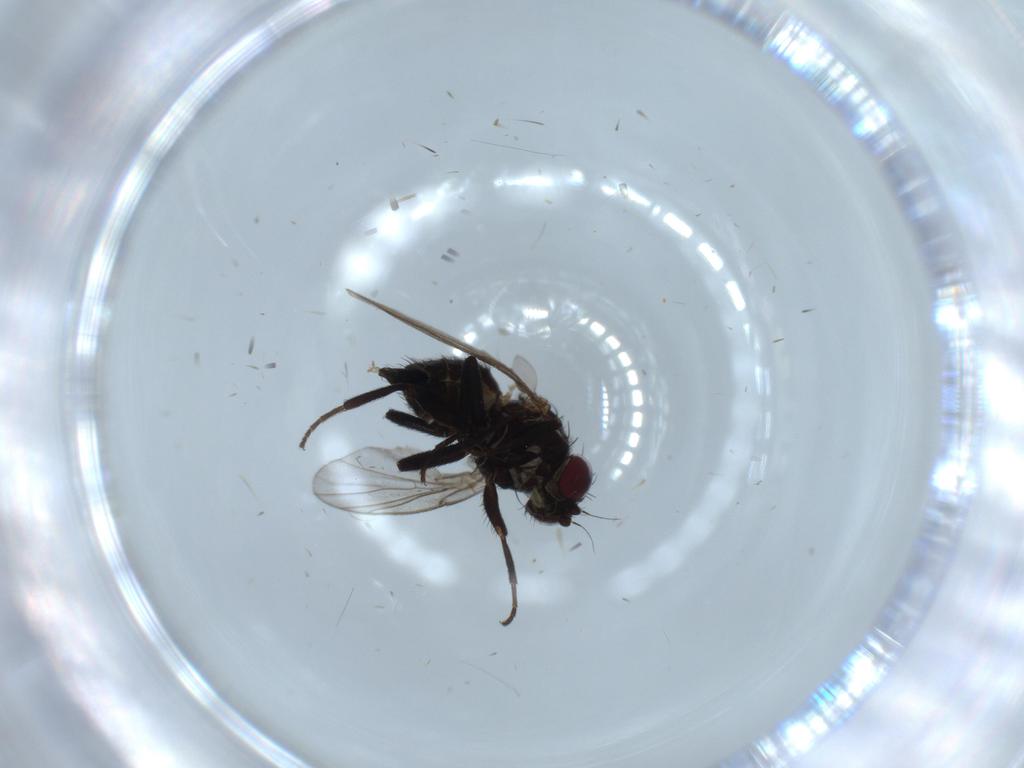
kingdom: Animalia
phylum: Arthropoda
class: Insecta
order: Diptera
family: Agromyzidae
